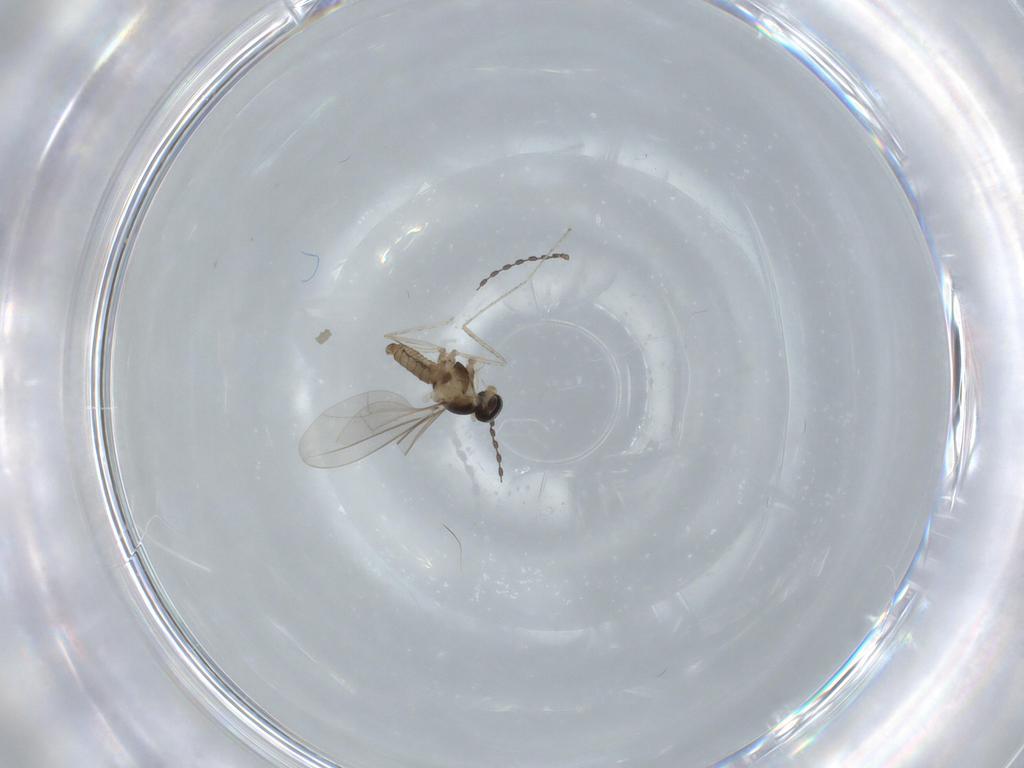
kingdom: Animalia
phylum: Arthropoda
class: Insecta
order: Diptera
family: Cecidomyiidae
